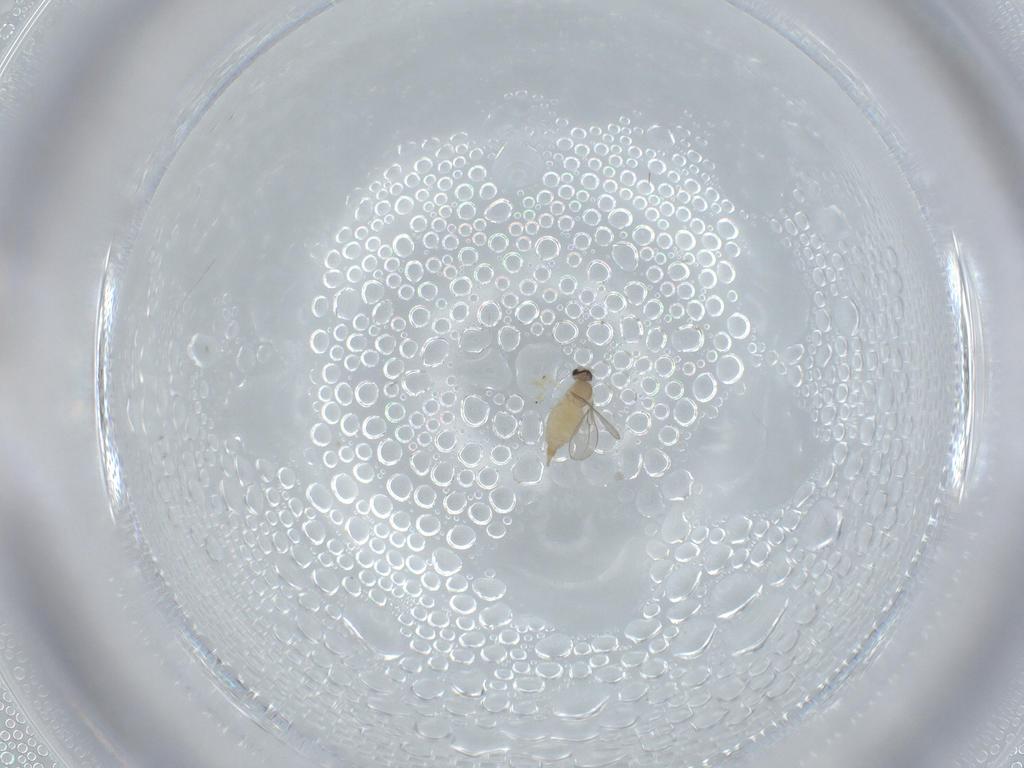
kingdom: Animalia
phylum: Arthropoda
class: Insecta
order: Diptera
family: Cecidomyiidae
